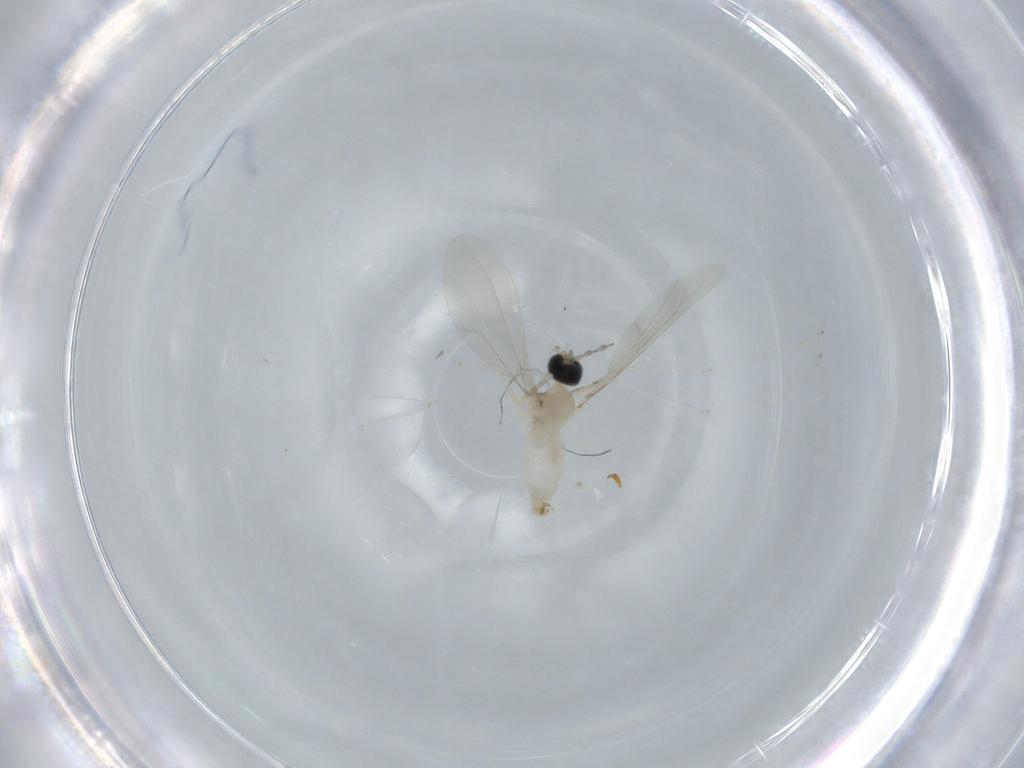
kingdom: Animalia
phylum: Arthropoda
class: Insecta
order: Diptera
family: Cecidomyiidae
